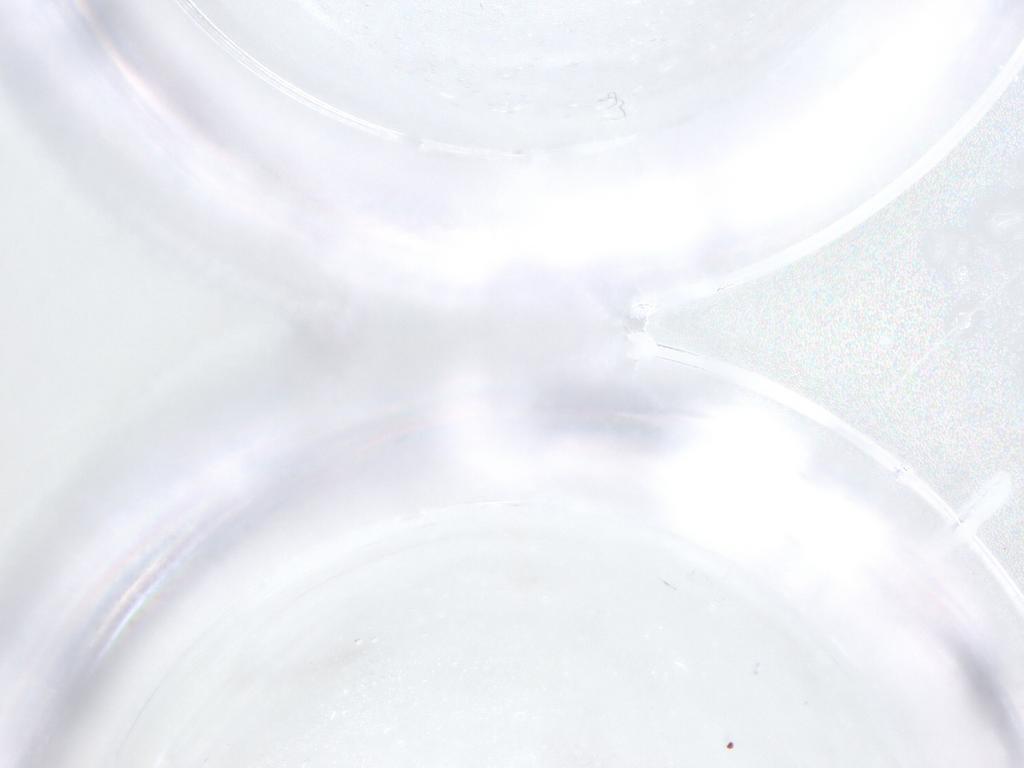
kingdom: Animalia
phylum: Arthropoda
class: Insecta
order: Diptera
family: Cecidomyiidae
